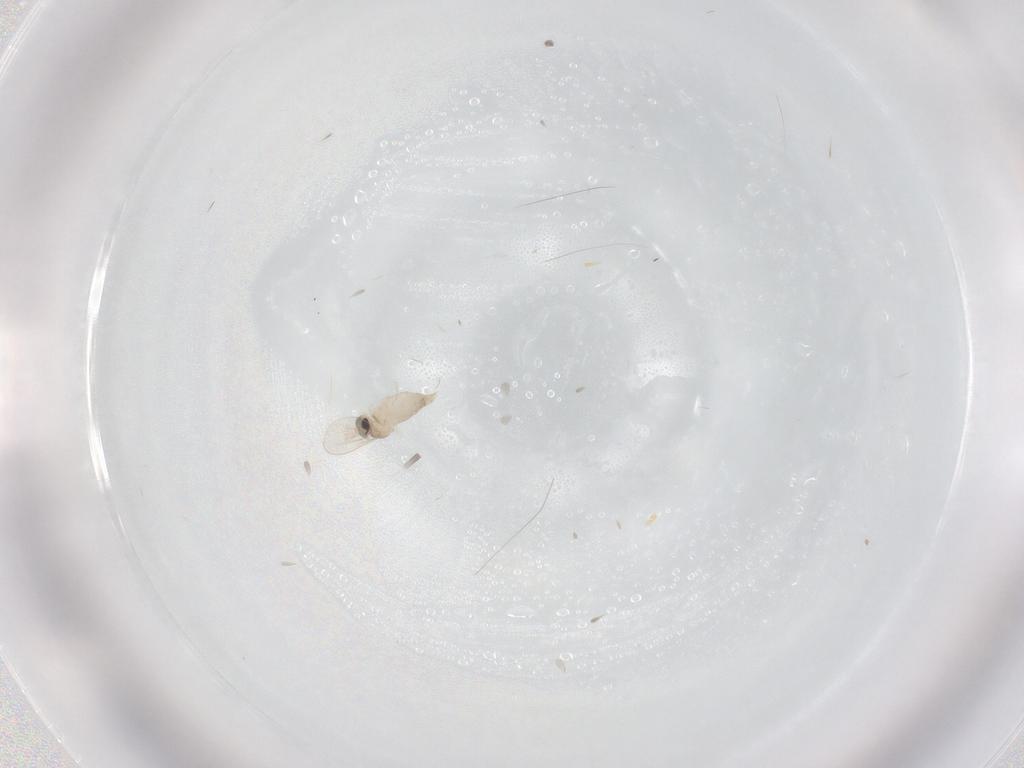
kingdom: Animalia
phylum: Arthropoda
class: Insecta
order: Diptera
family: Cecidomyiidae
